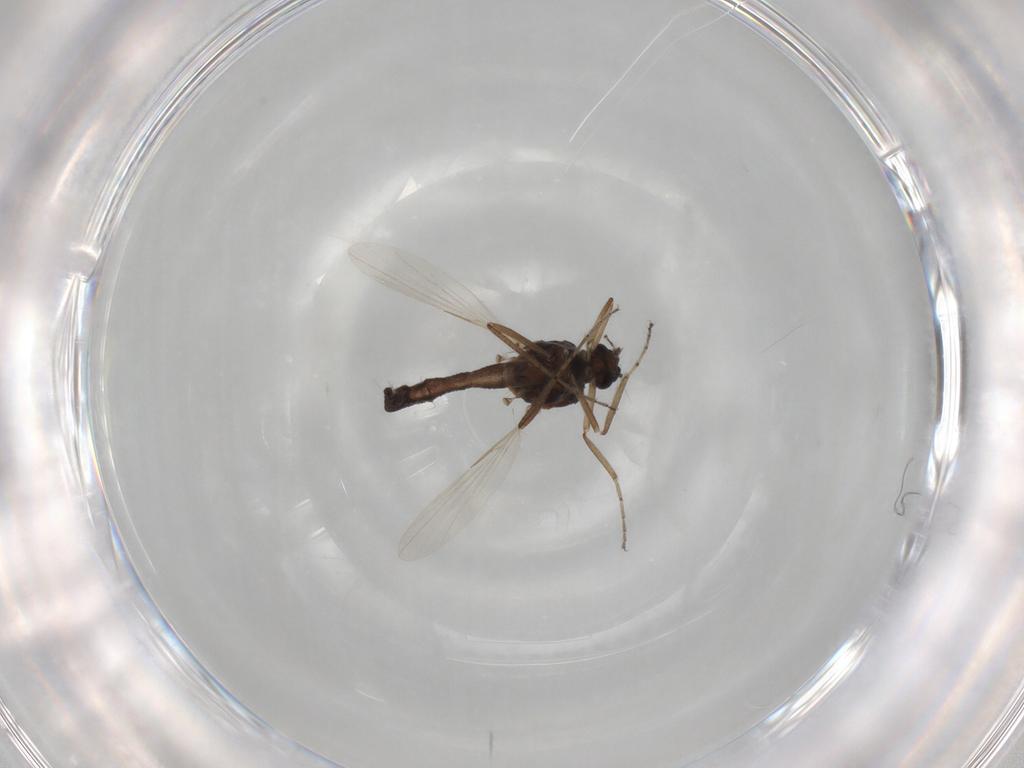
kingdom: Animalia
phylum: Arthropoda
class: Insecta
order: Diptera
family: Ceratopogonidae
